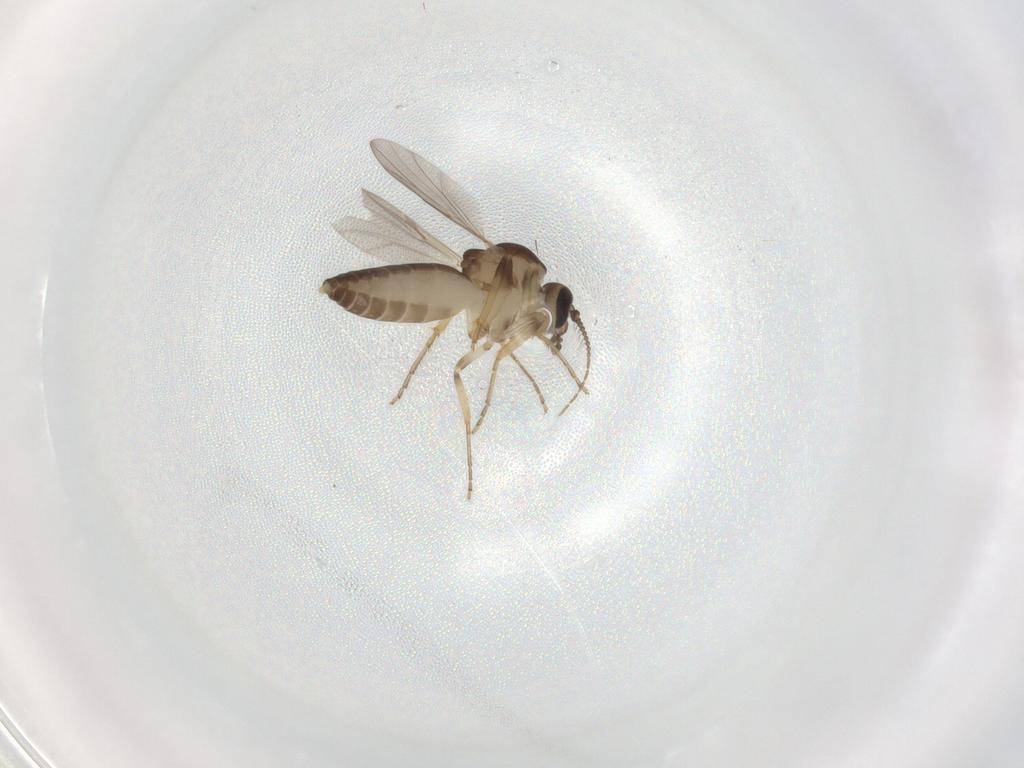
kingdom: Animalia
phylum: Arthropoda
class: Insecta
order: Diptera
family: Ceratopogonidae
